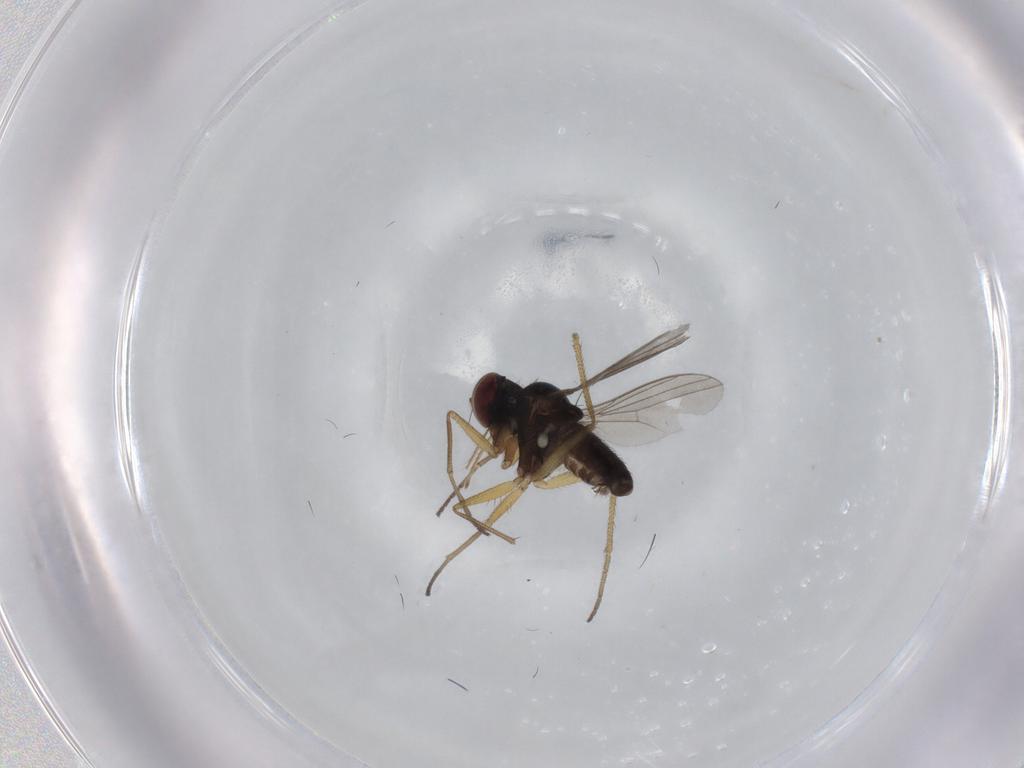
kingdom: Animalia
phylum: Arthropoda
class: Insecta
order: Diptera
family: Dolichopodidae
